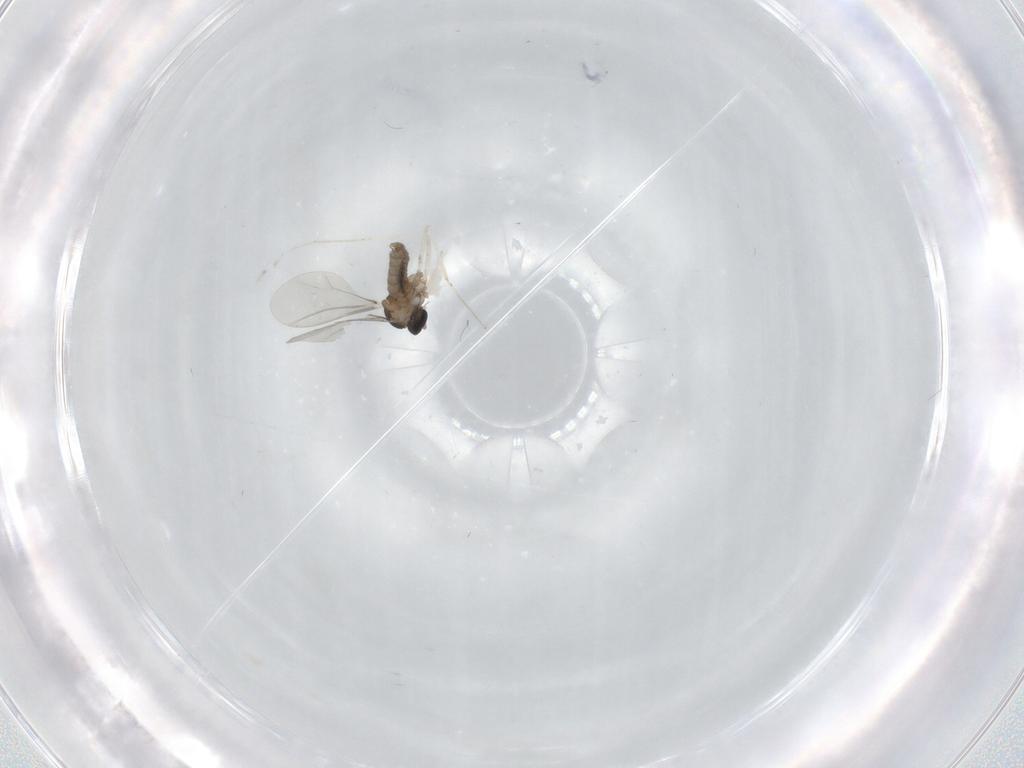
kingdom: Animalia
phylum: Arthropoda
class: Insecta
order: Diptera
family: Cecidomyiidae
